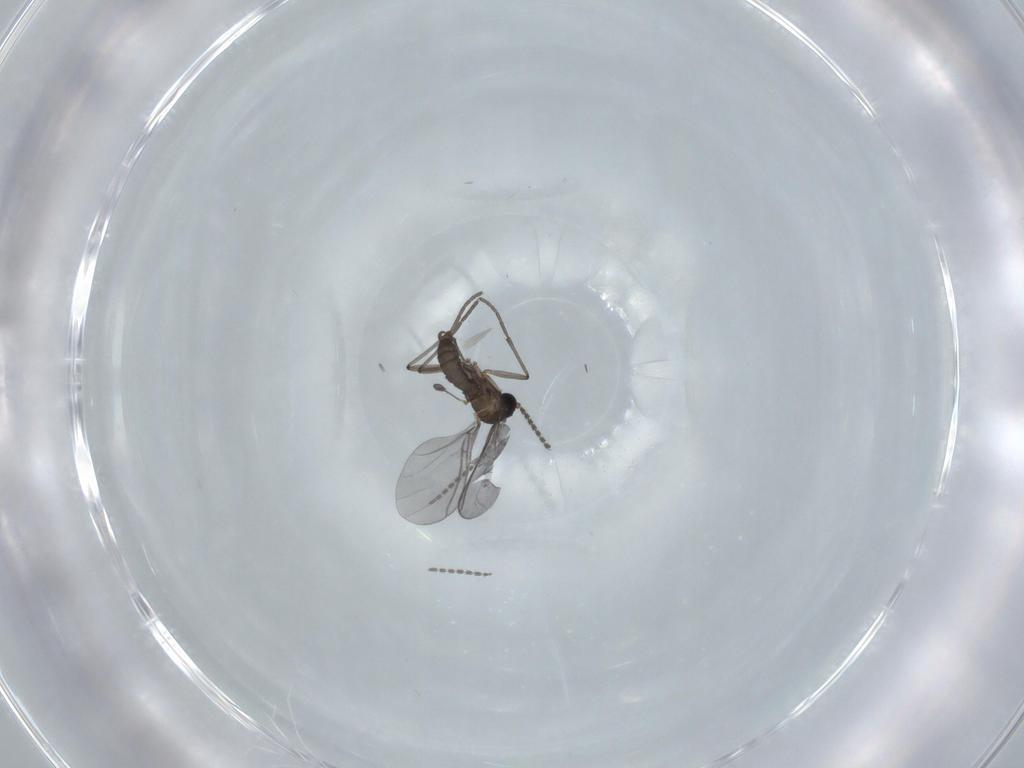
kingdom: Animalia
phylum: Arthropoda
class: Insecta
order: Diptera
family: Sciaridae
